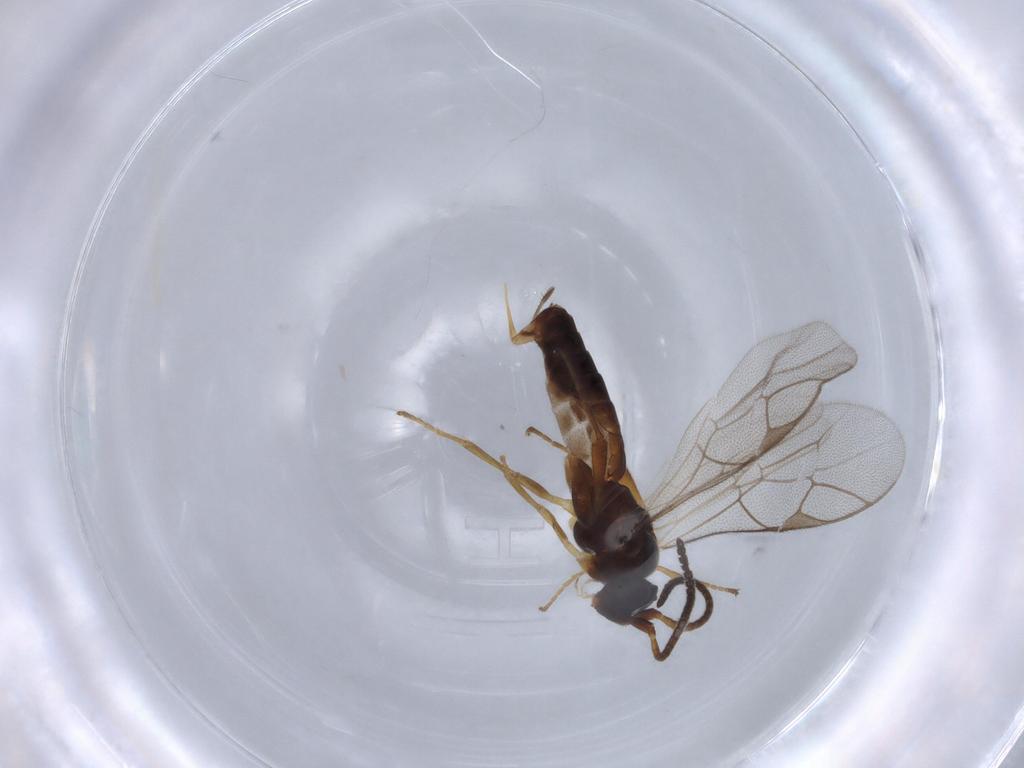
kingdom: Animalia
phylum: Arthropoda
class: Insecta
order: Hymenoptera
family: Ichneumonidae
